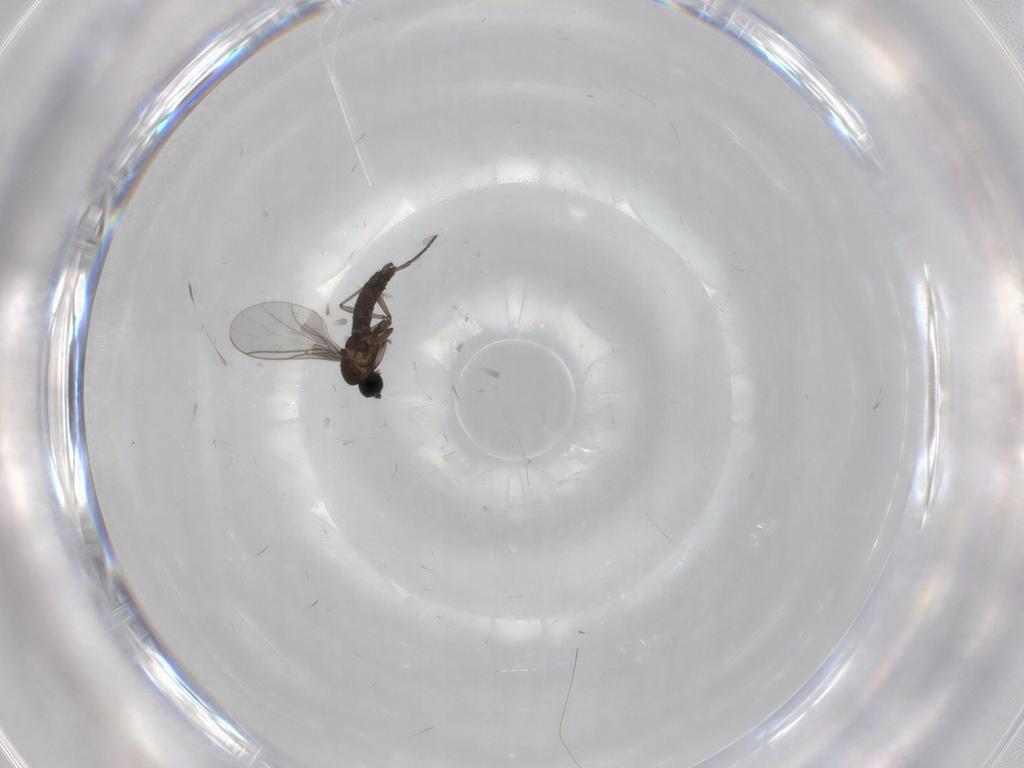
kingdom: Animalia
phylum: Arthropoda
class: Insecta
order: Diptera
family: Cecidomyiidae
